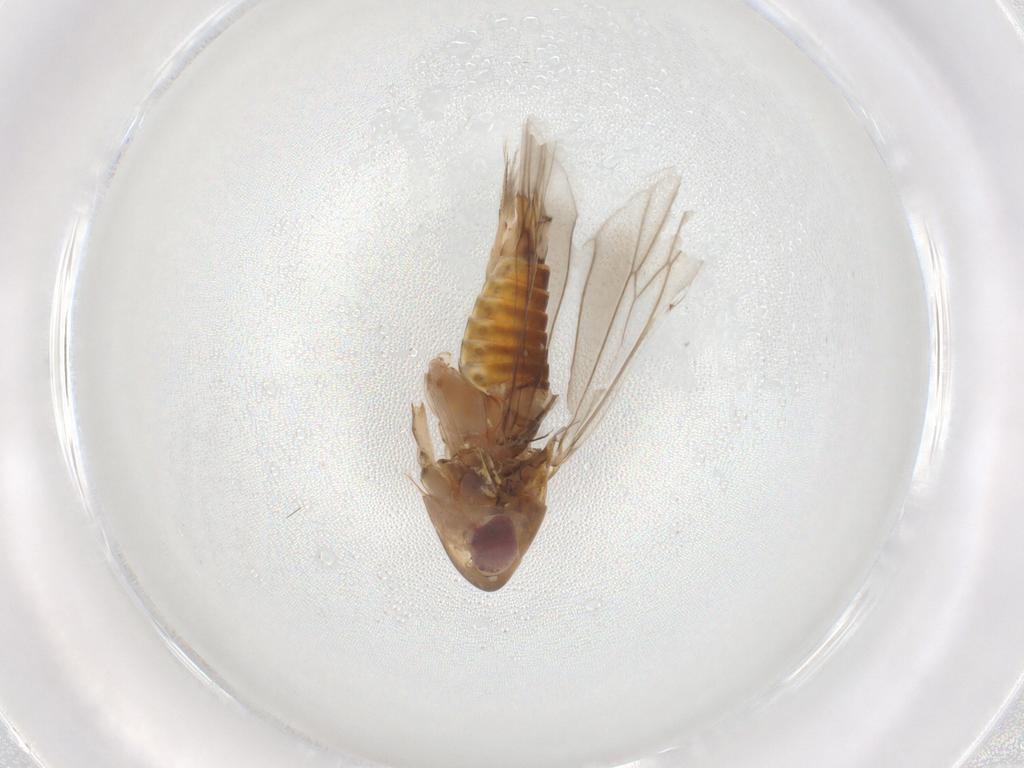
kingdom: Animalia
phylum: Arthropoda
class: Insecta
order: Hemiptera
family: Cicadellidae
